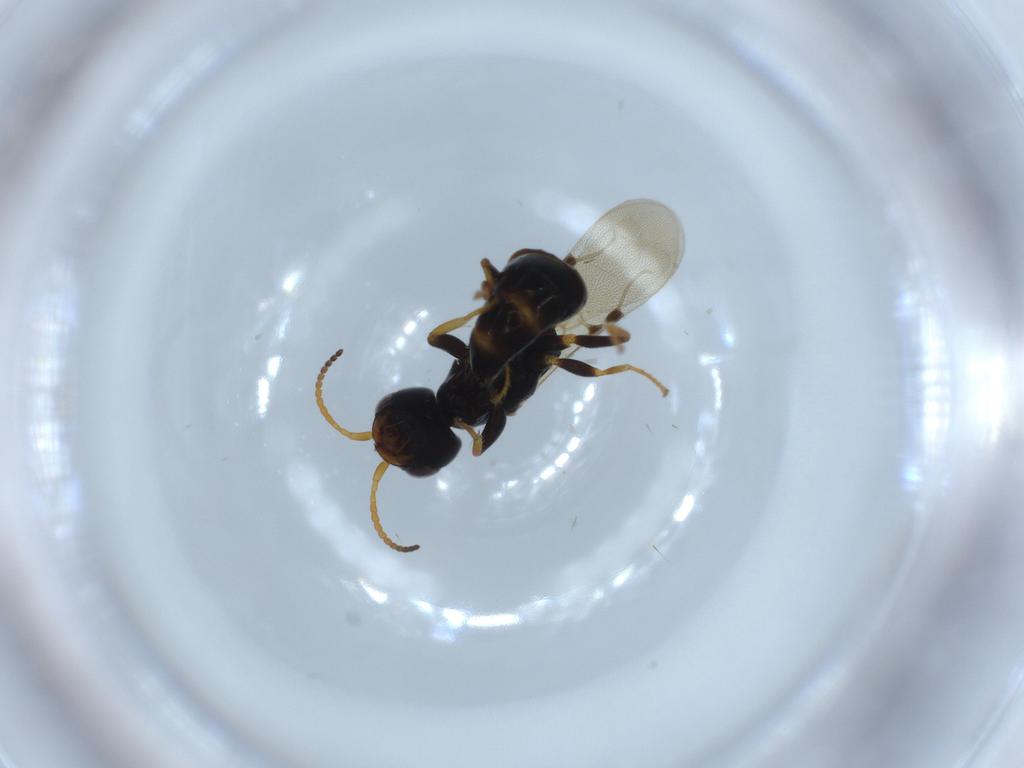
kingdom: Animalia
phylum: Arthropoda
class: Insecta
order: Hymenoptera
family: Bethylidae
